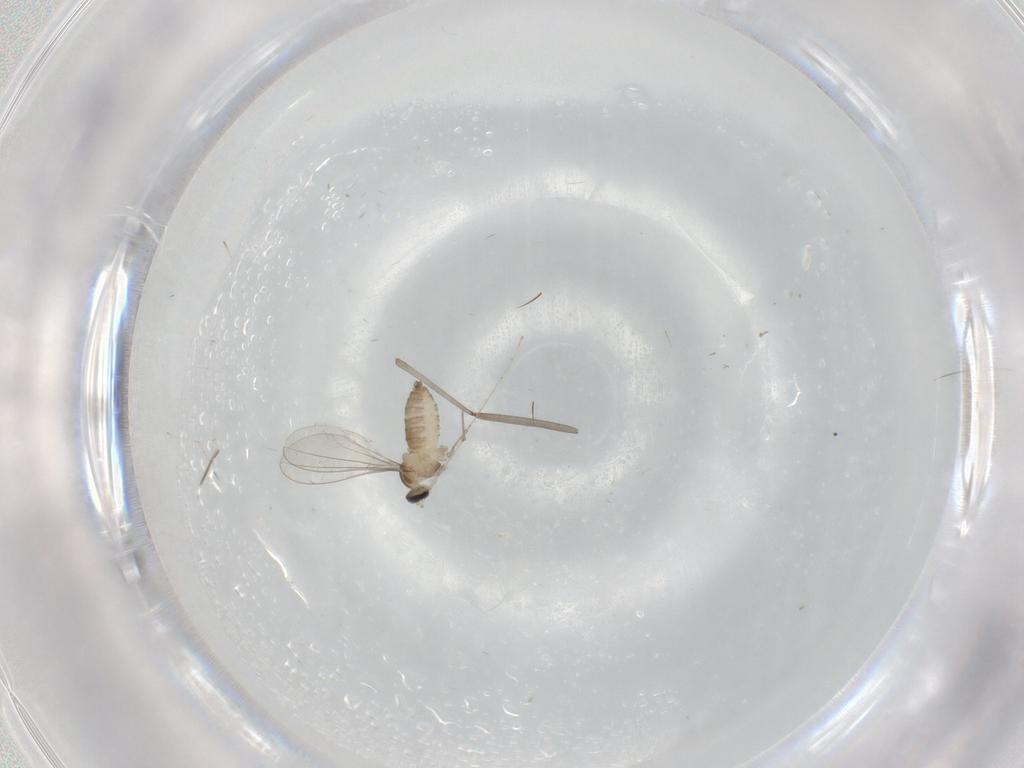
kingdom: Animalia
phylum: Arthropoda
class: Insecta
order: Diptera
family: Cecidomyiidae
